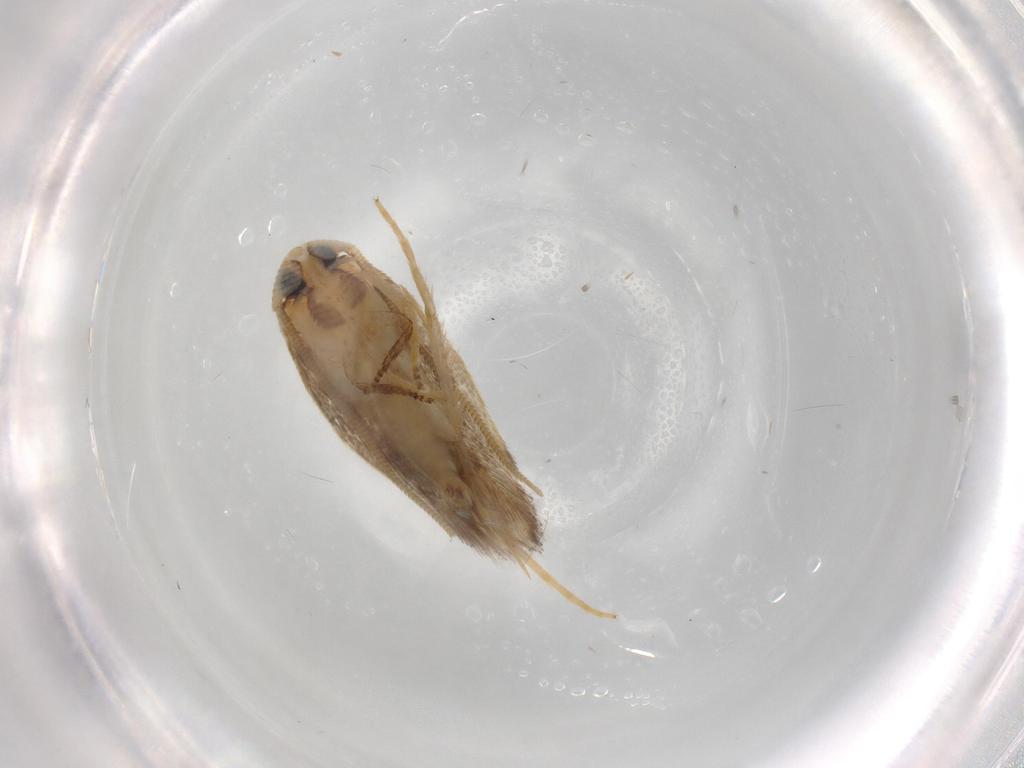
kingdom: Animalia
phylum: Arthropoda
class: Insecta
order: Lepidoptera
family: Opostegidae
